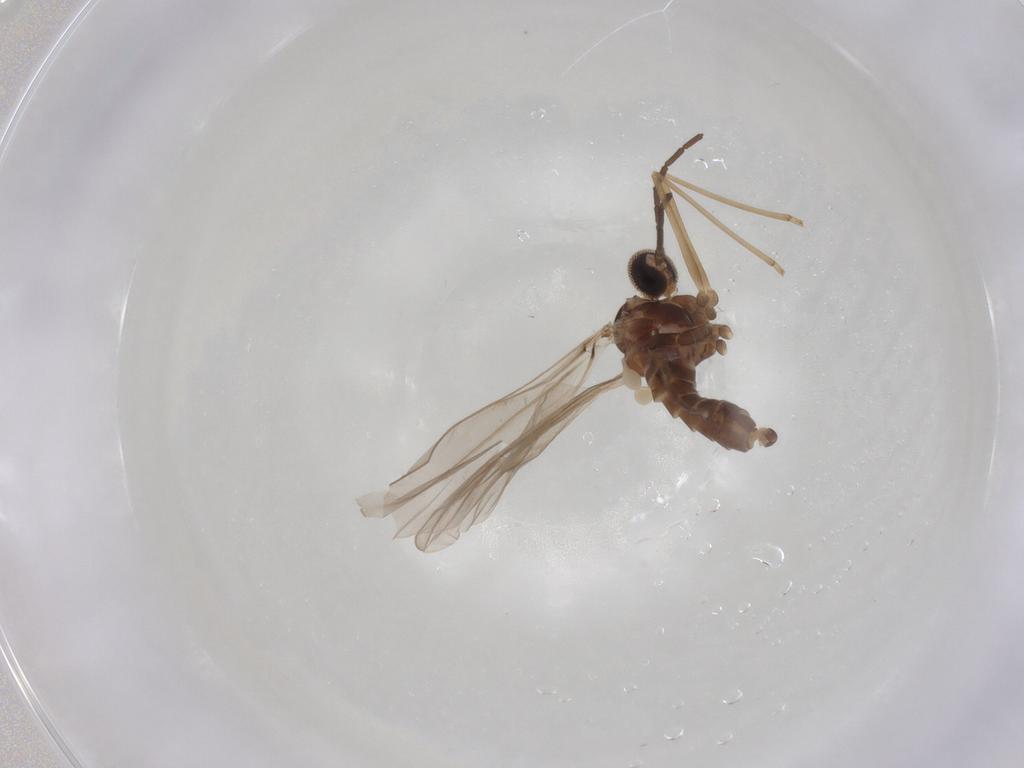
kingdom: Animalia
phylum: Arthropoda
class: Insecta
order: Diptera
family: Cecidomyiidae
